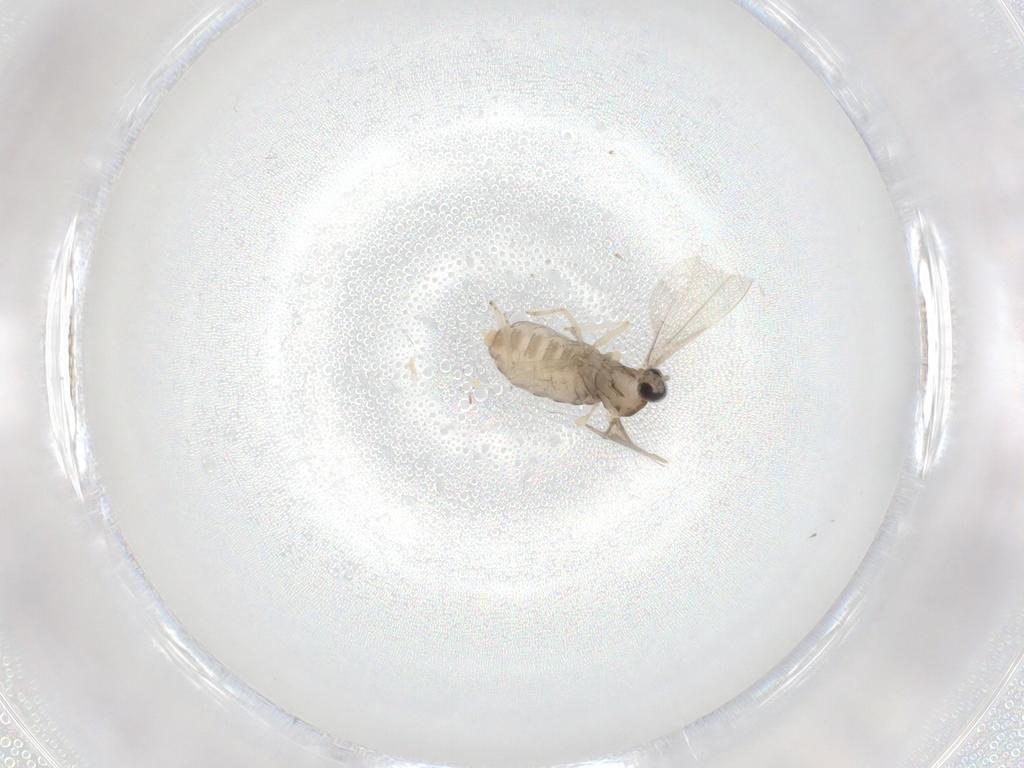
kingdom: Animalia
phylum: Arthropoda
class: Insecta
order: Diptera
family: Phoridae
